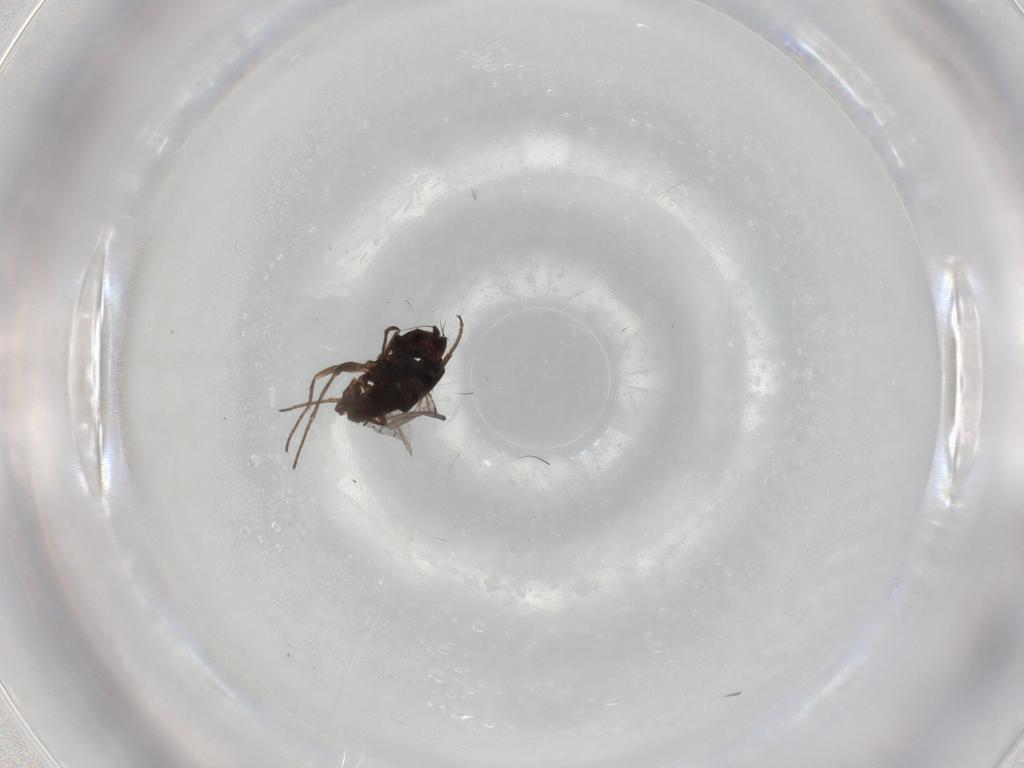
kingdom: Animalia
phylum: Arthropoda
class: Insecta
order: Diptera
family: Dolichopodidae
